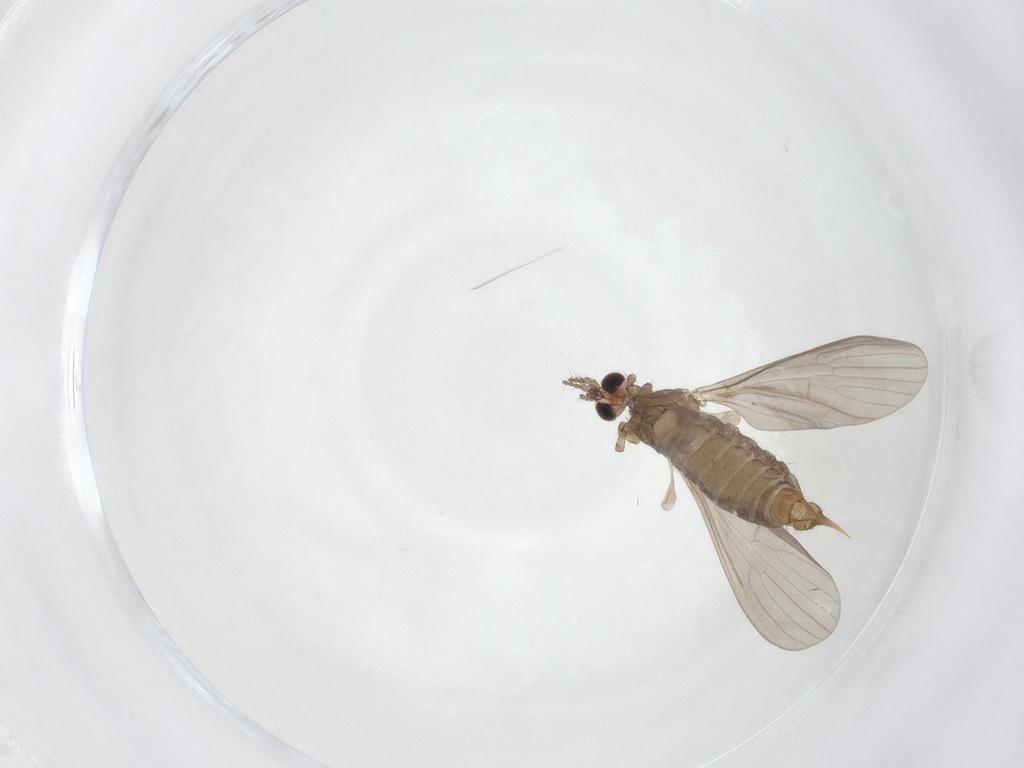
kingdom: Animalia
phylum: Arthropoda
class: Insecta
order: Diptera
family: Limoniidae
